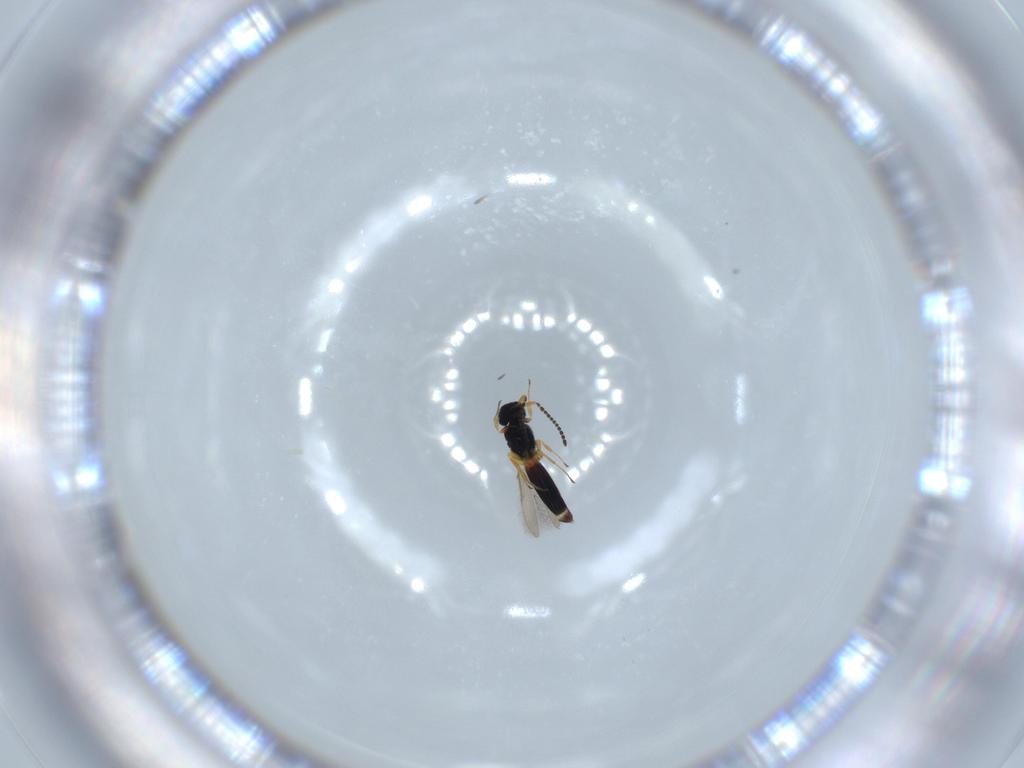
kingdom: Animalia
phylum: Arthropoda
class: Insecta
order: Hymenoptera
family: Scelionidae
